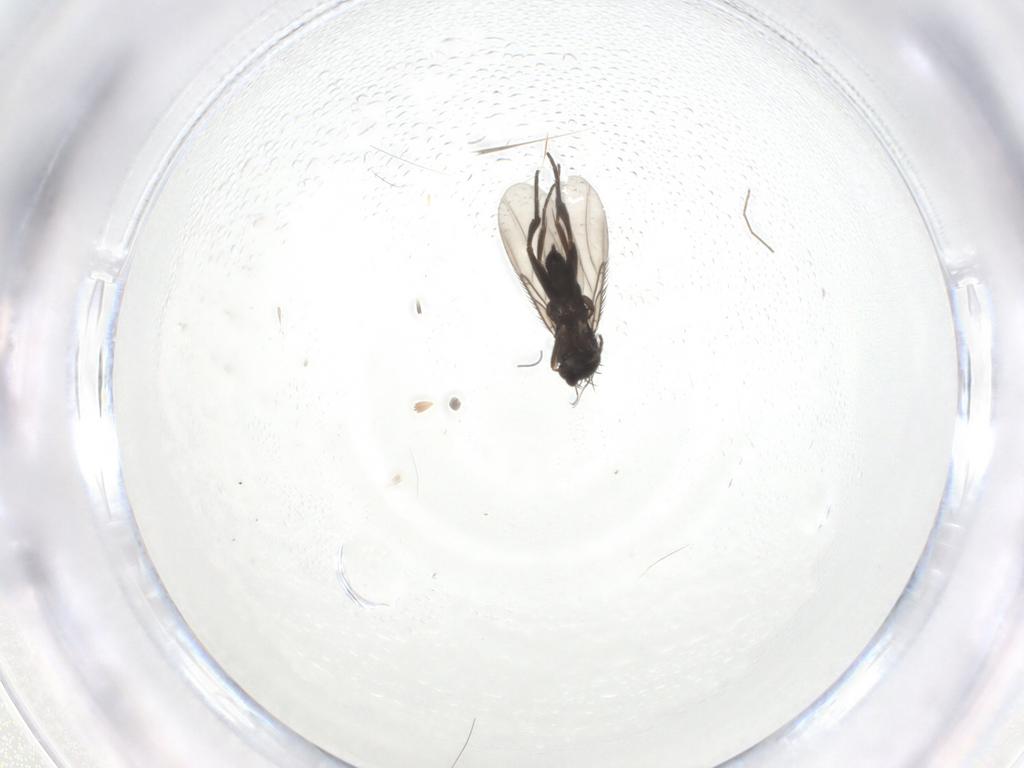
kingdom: Animalia
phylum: Arthropoda
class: Insecta
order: Diptera
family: Phoridae
